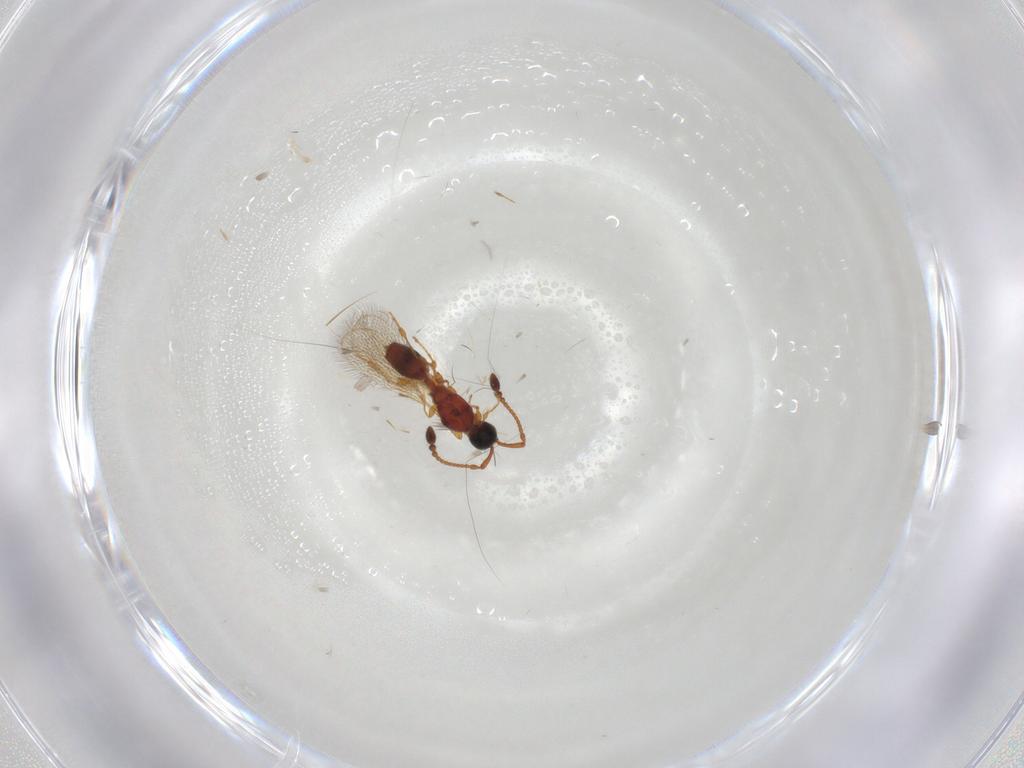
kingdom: Animalia
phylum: Arthropoda
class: Insecta
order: Hymenoptera
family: Diapriidae
